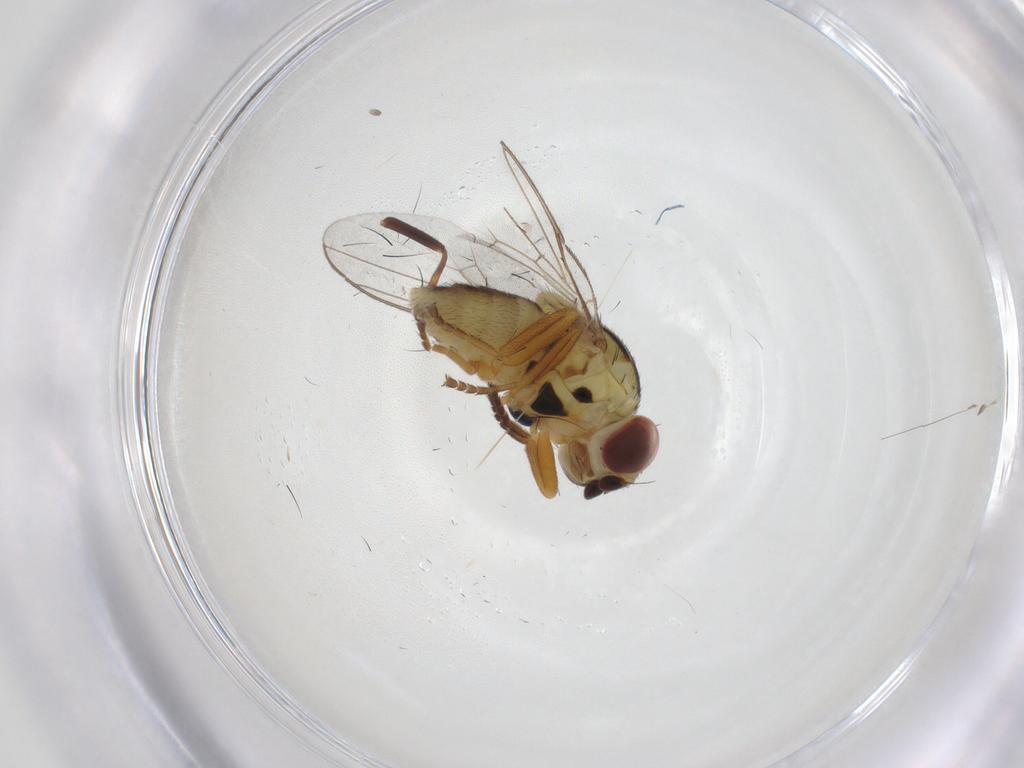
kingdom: Animalia
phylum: Arthropoda
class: Insecta
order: Diptera
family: Chloropidae
